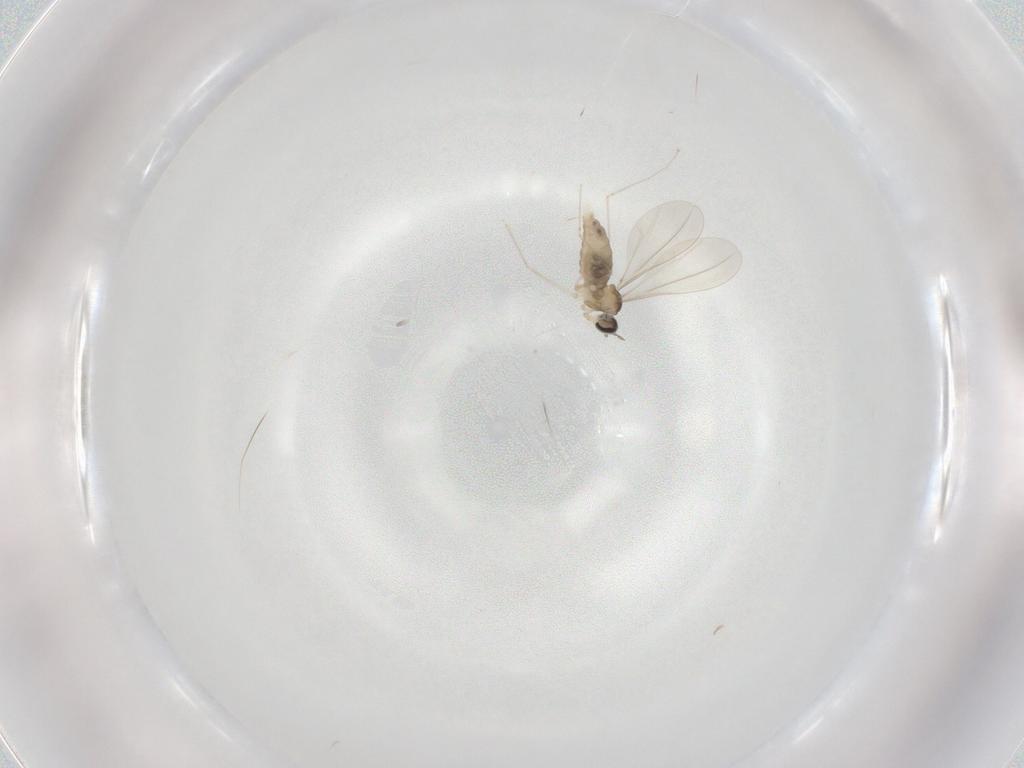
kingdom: Animalia
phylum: Arthropoda
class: Insecta
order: Diptera
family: Cecidomyiidae
